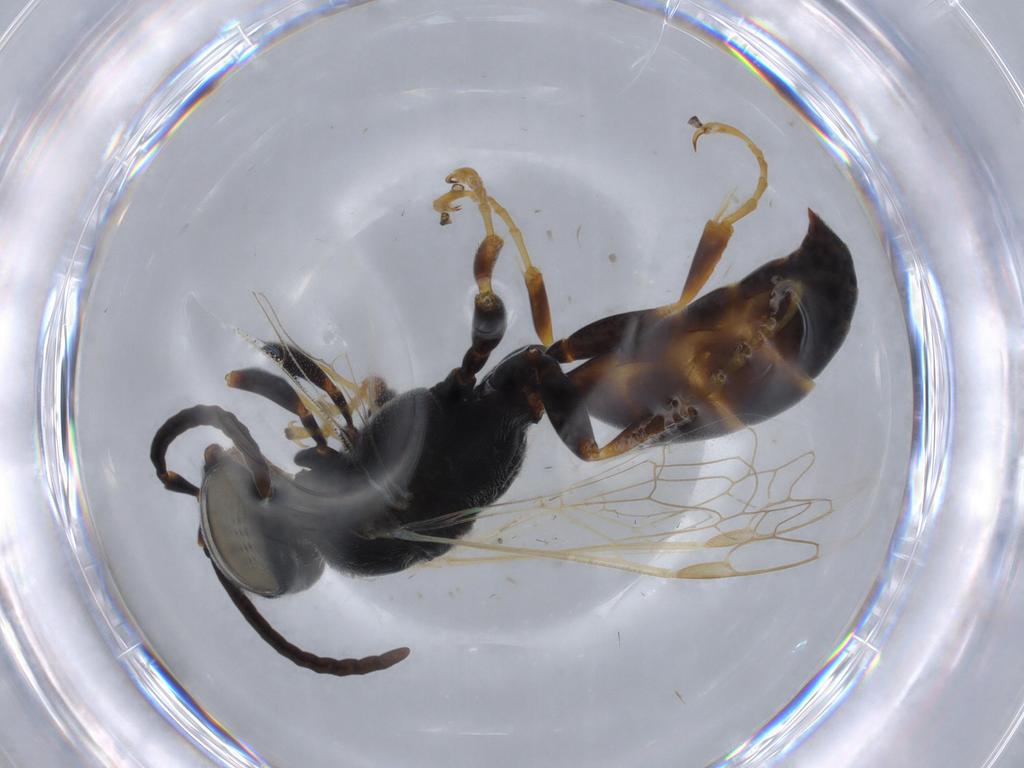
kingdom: Animalia
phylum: Arthropoda
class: Insecta
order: Hymenoptera
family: Crabronidae
